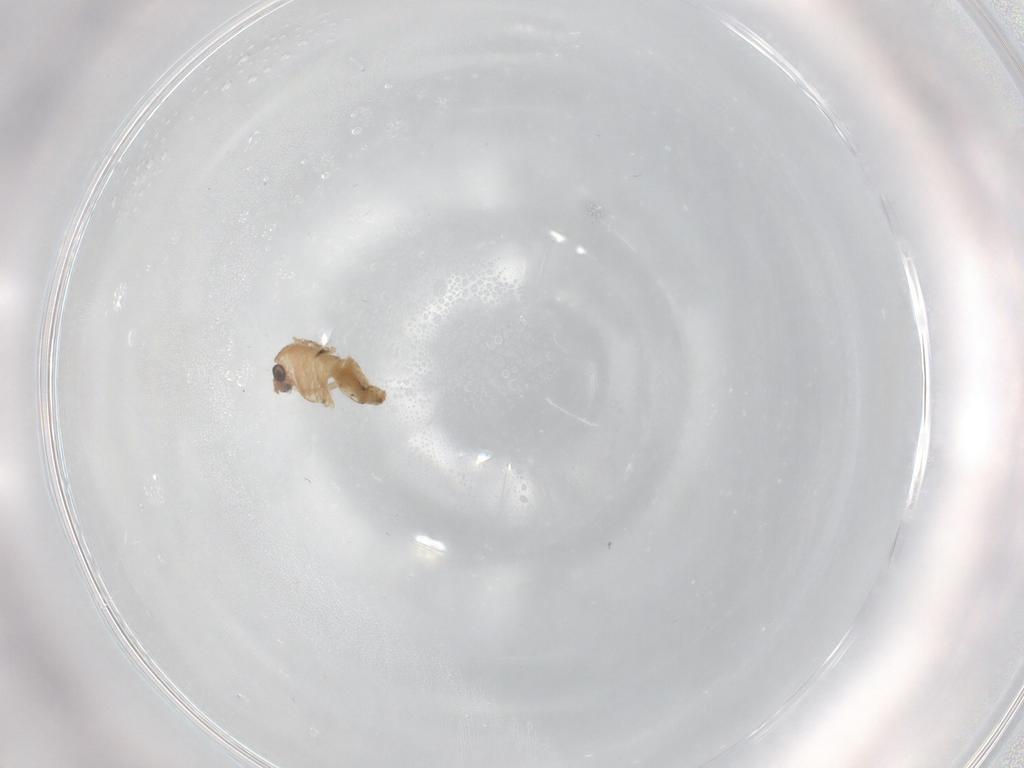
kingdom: Animalia
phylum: Arthropoda
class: Insecta
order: Diptera
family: Chironomidae
